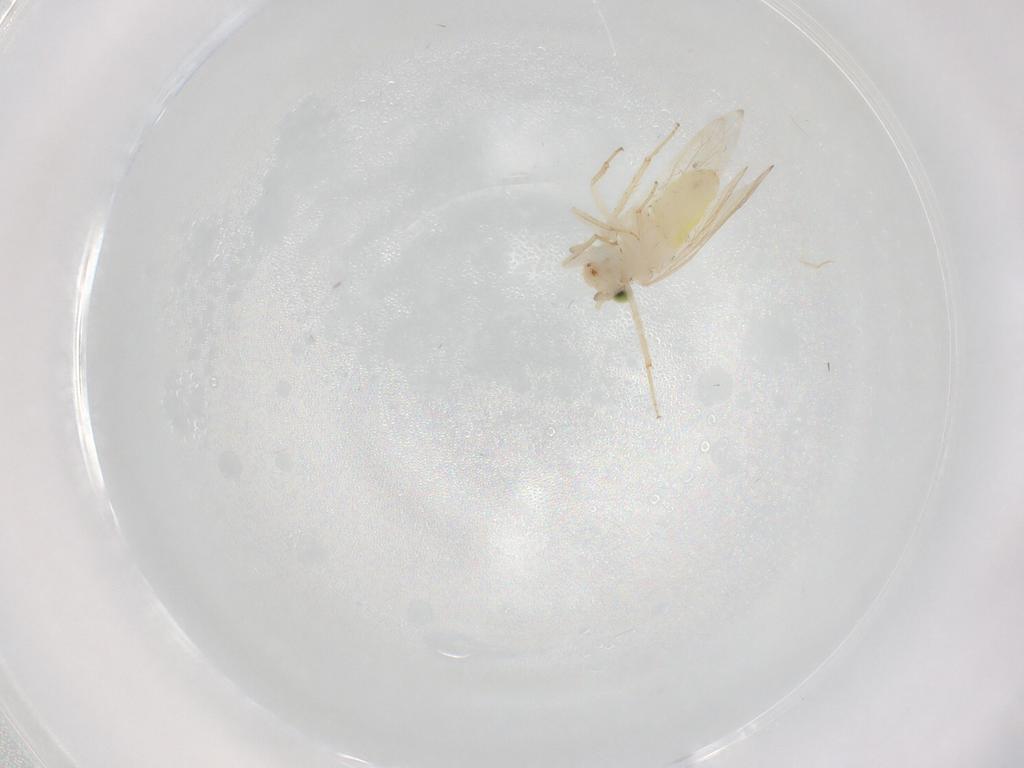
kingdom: Animalia
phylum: Arthropoda
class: Insecta
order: Psocodea
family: Lepidopsocidae
